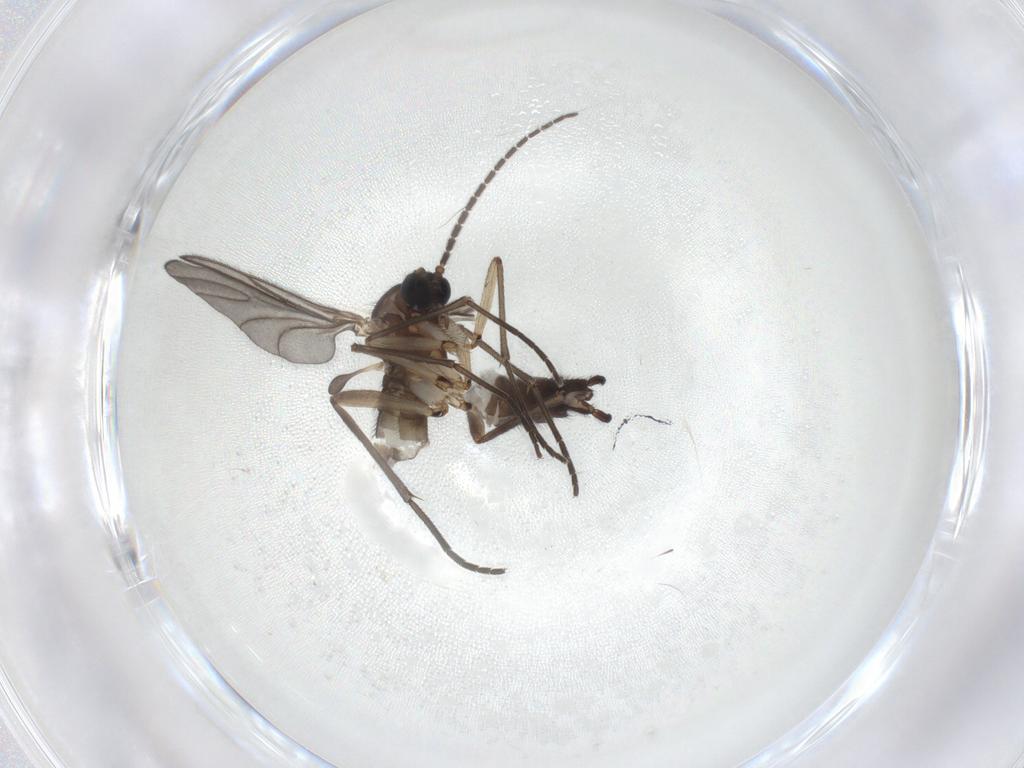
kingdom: Animalia
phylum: Arthropoda
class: Insecta
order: Diptera
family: Sciaridae
